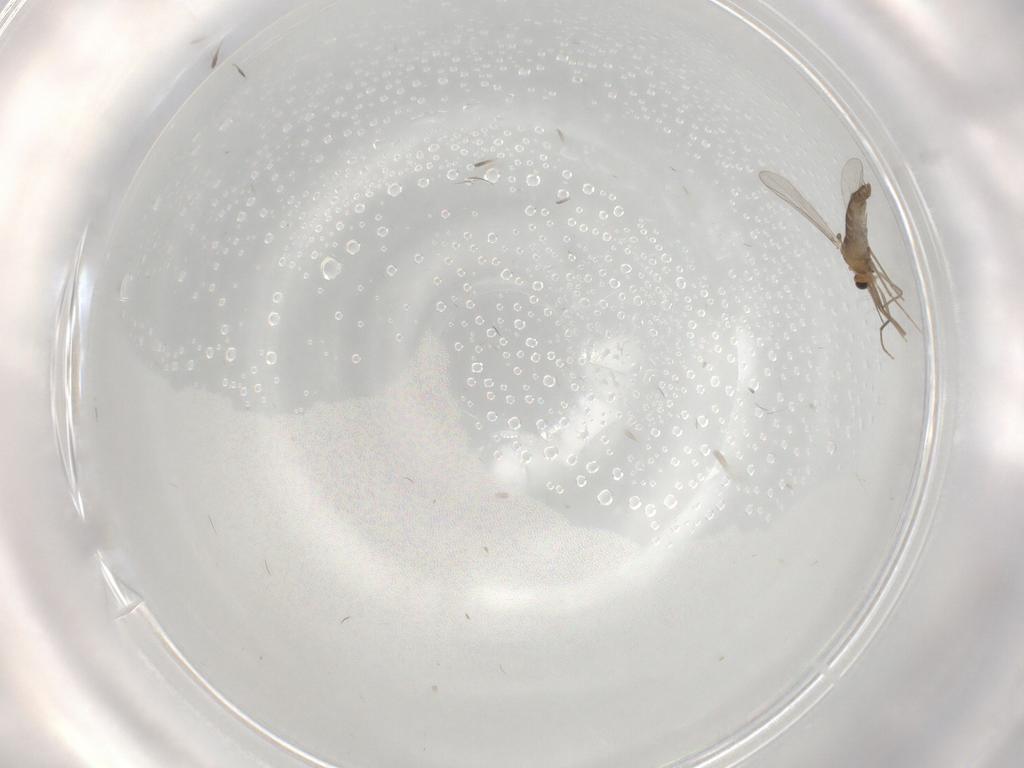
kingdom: Animalia
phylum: Arthropoda
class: Insecta
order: Diptera
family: Chironomidae
